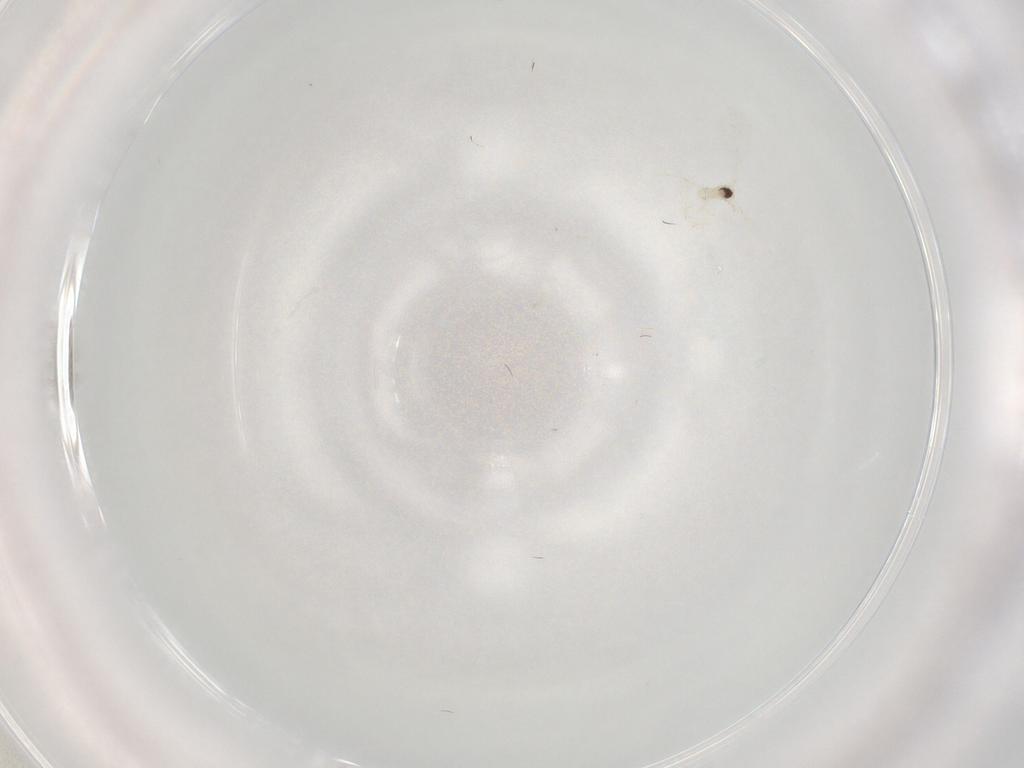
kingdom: Animalia
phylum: Arthropoda
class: Insecta
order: Diptera
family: Cecidomyiidae
